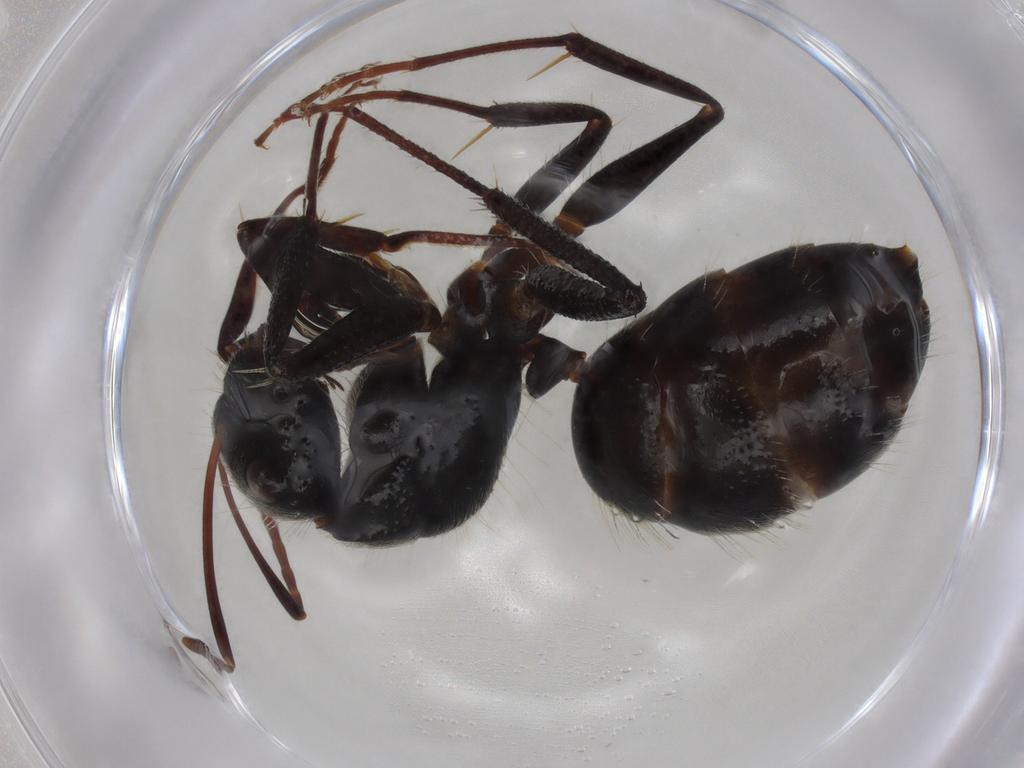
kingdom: Animalia
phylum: Arthropoda
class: Insecta
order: Hymenoptera
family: Formicidae
